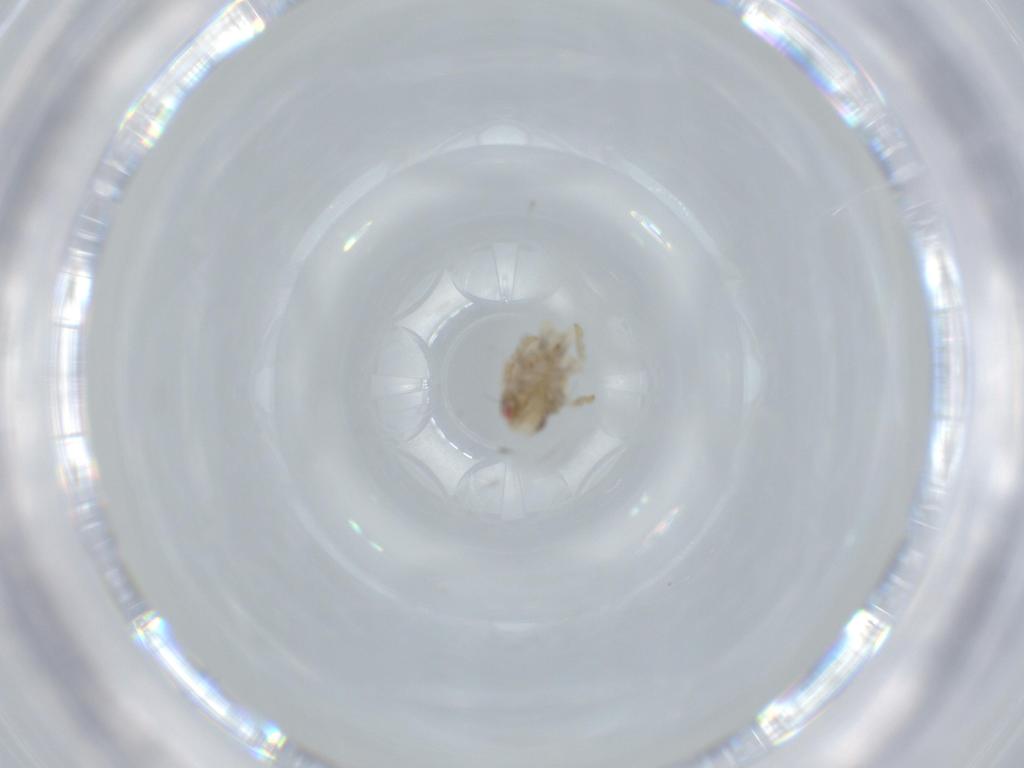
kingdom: Animalia
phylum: Arthropoda
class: Insecta
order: Hemiptera
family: Acanaloniidae
